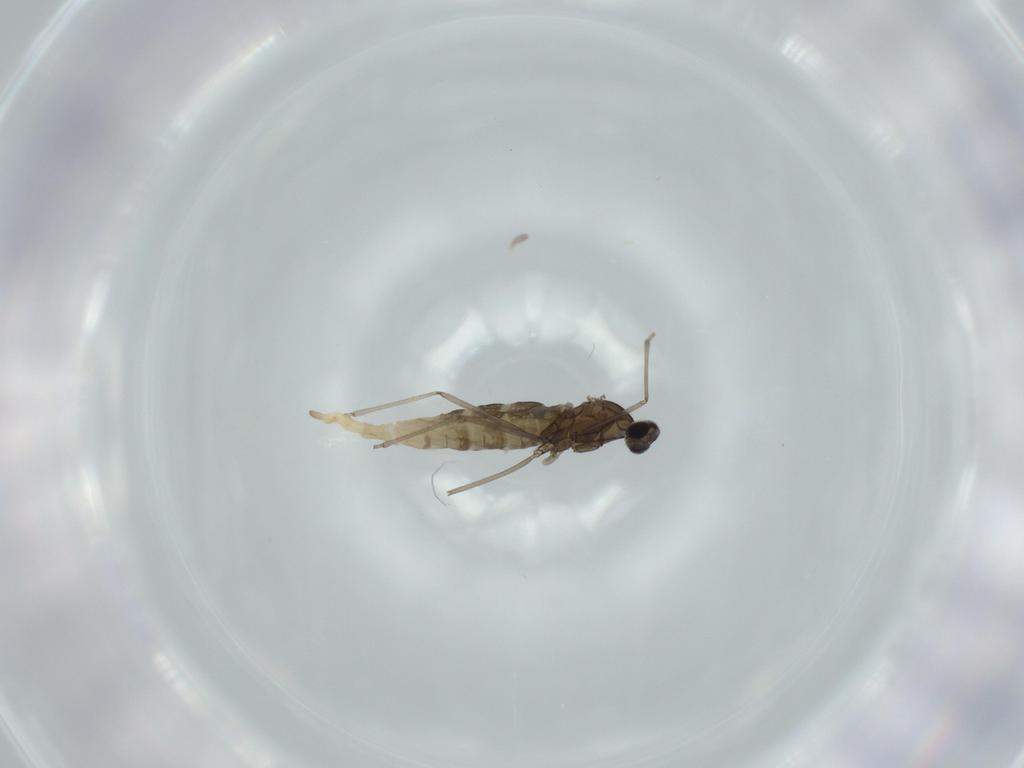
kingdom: Animalia
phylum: Arthropoda
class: Insecta
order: Diptera
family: Cecidomyiidae
